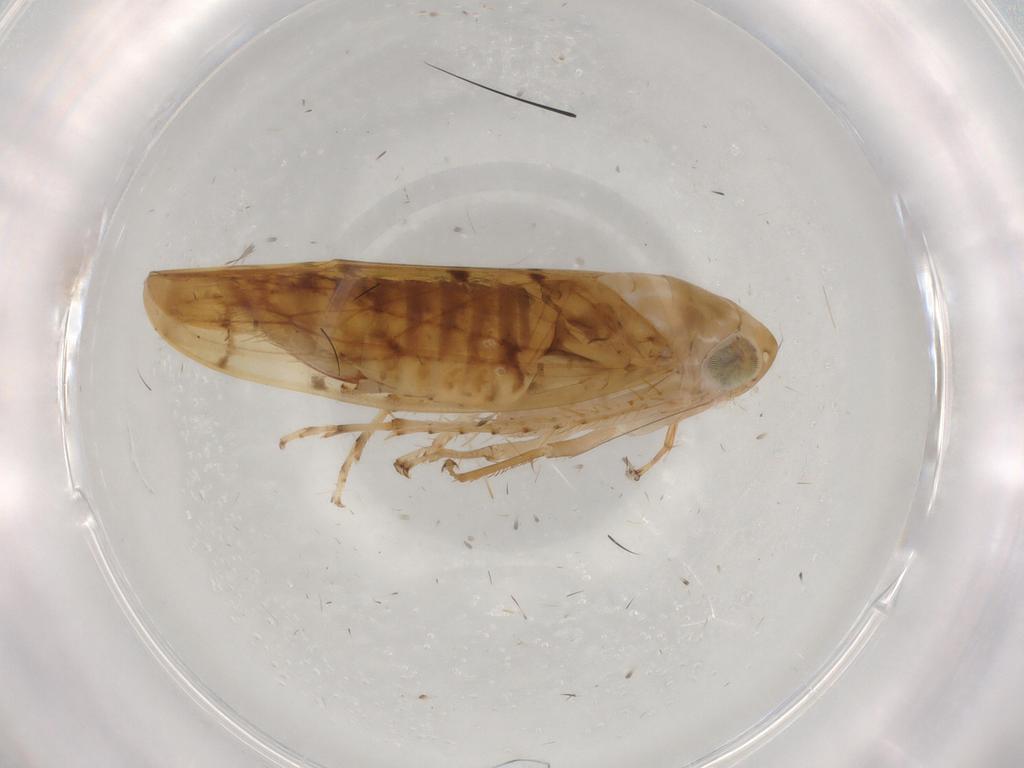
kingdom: Animalia
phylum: Arthropoda
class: Insecta
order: Hemiptera
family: Cicadellidae
